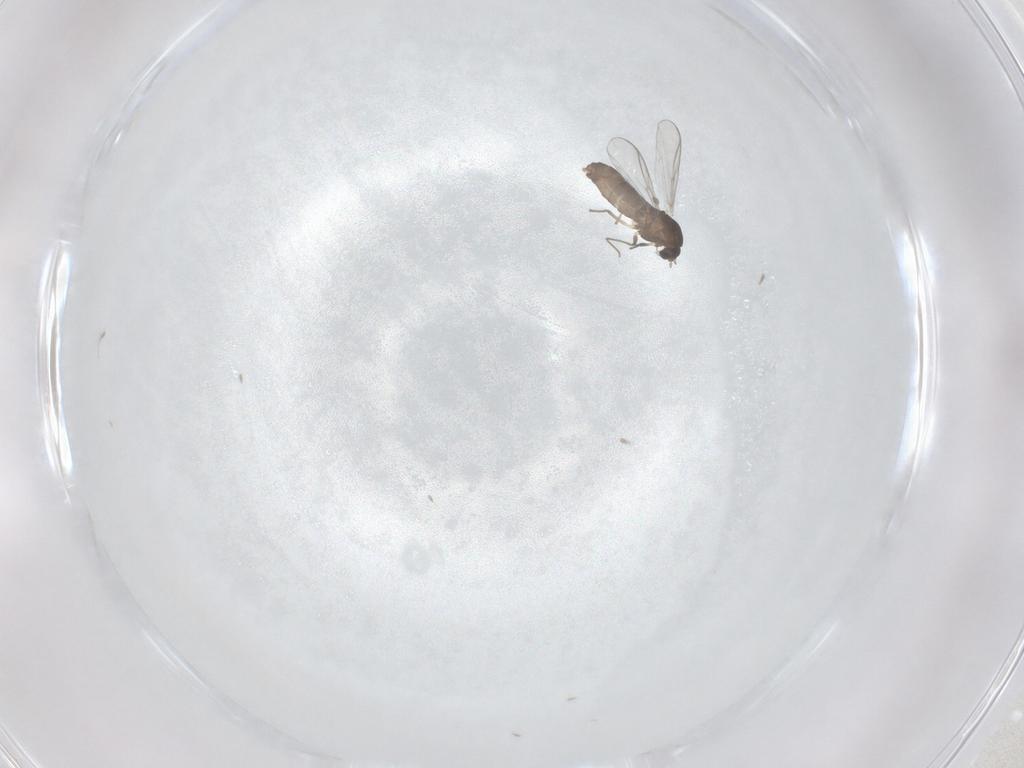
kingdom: Animalia
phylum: Arthropoda
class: Insecta
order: Diptera
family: Chironomidae
